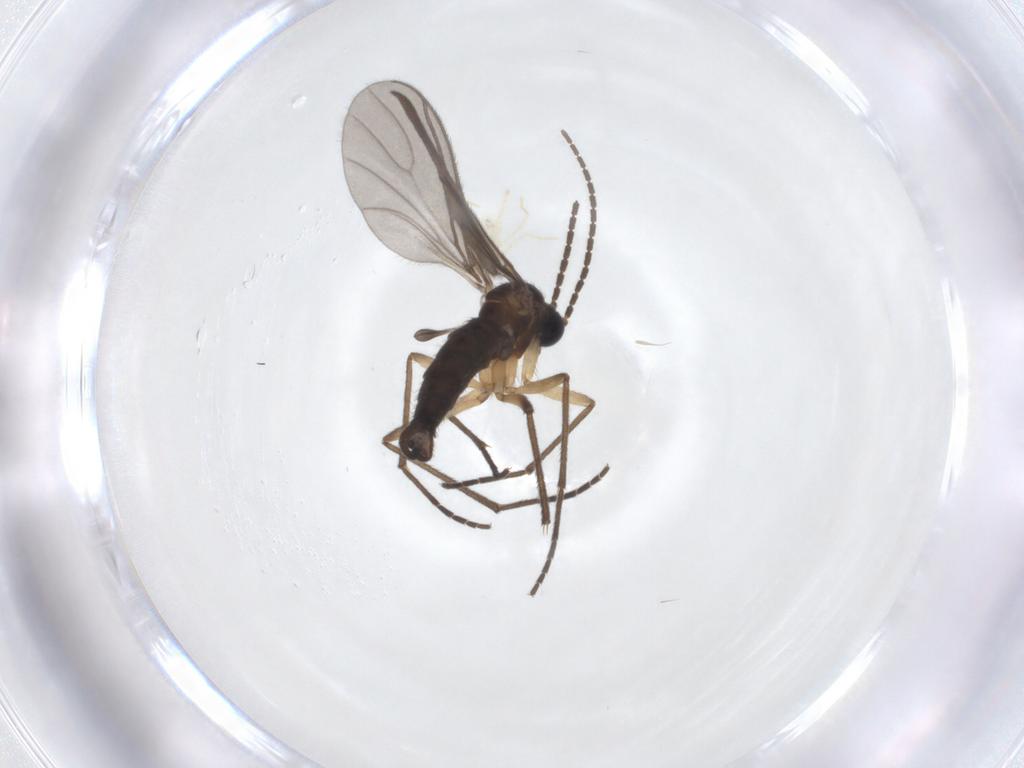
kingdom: Animalia
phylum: Arthropoda
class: Insecta
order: Diptera
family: Sciaridae
